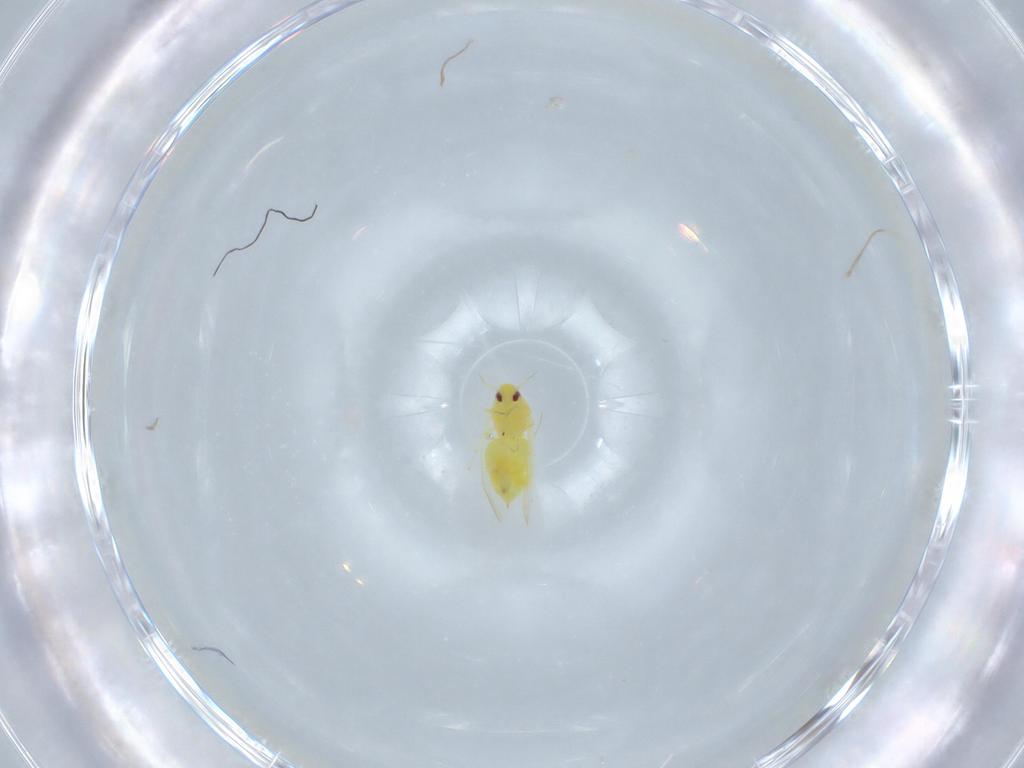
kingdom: Animalia
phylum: Arthropoda
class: Insecta
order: Hemiptera
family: Aleyrodidae
